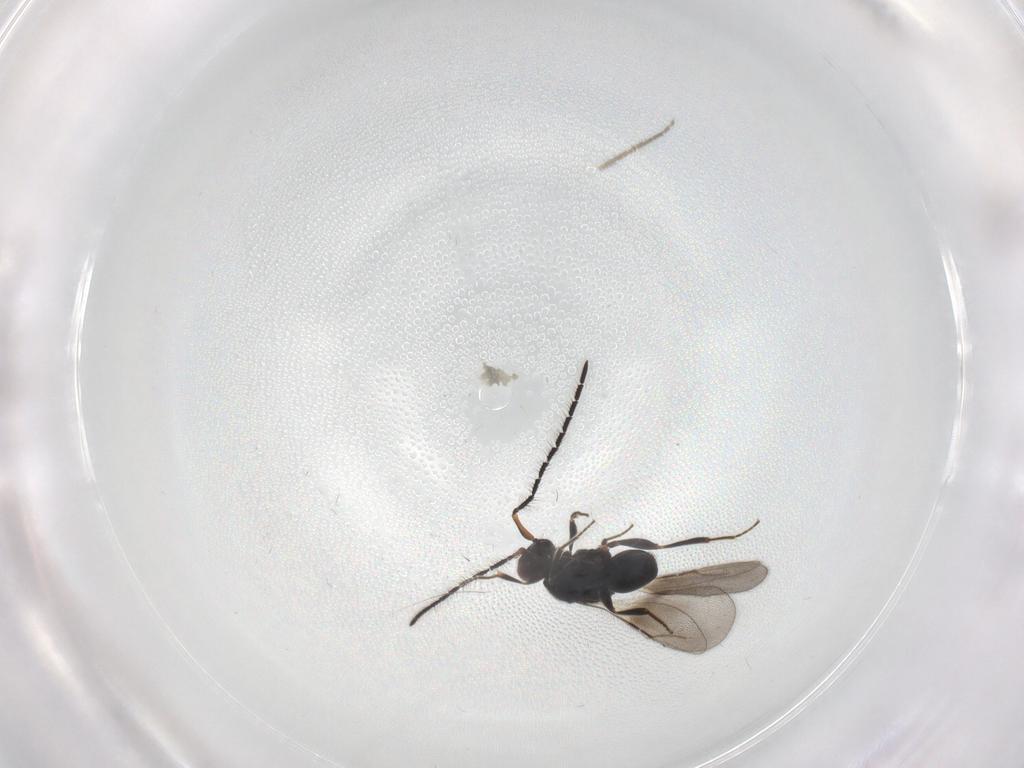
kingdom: Animalia
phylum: Arthropoda
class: Insecta
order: Hymenoptera
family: Ceraphronidae
